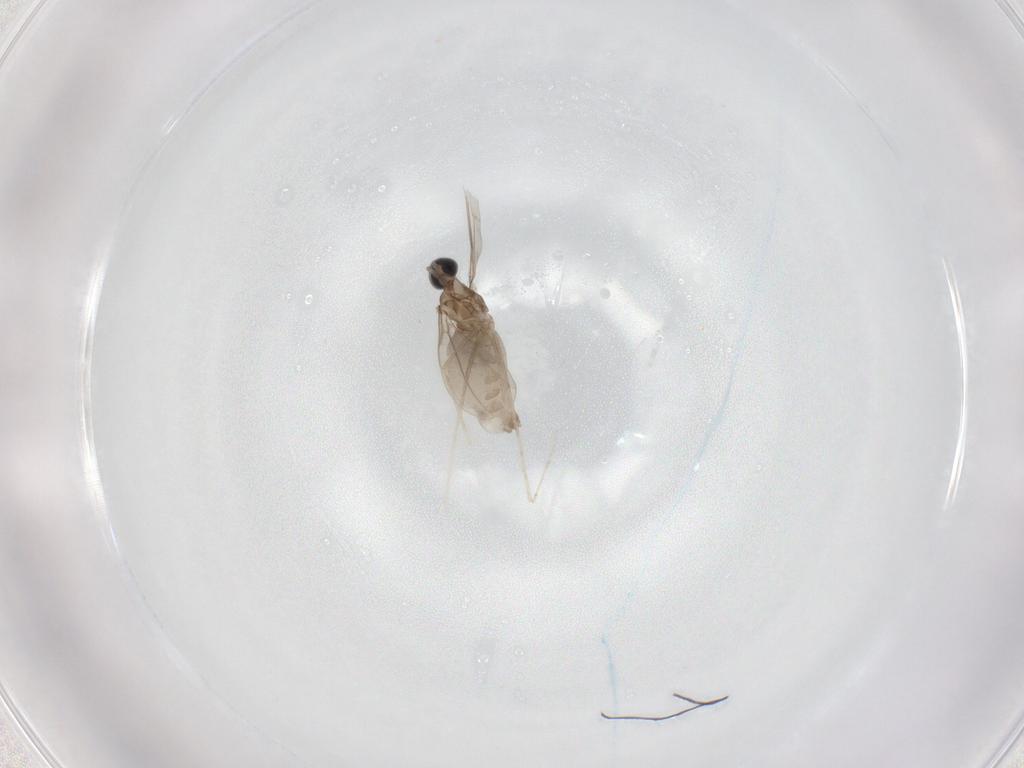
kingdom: Animalia
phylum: Arthropoda
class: Insecta
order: Diptera
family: Cecidomyiidae
